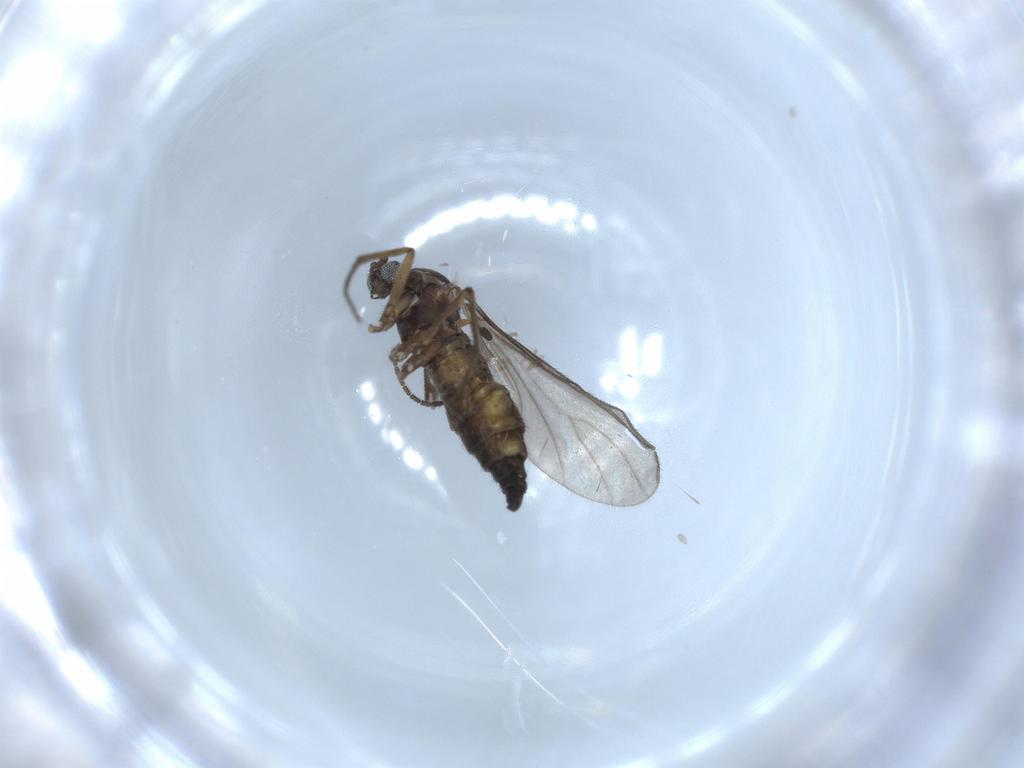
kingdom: Animalia
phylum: Arthropoda
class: Insecta
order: Diptera
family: Sciaridae
